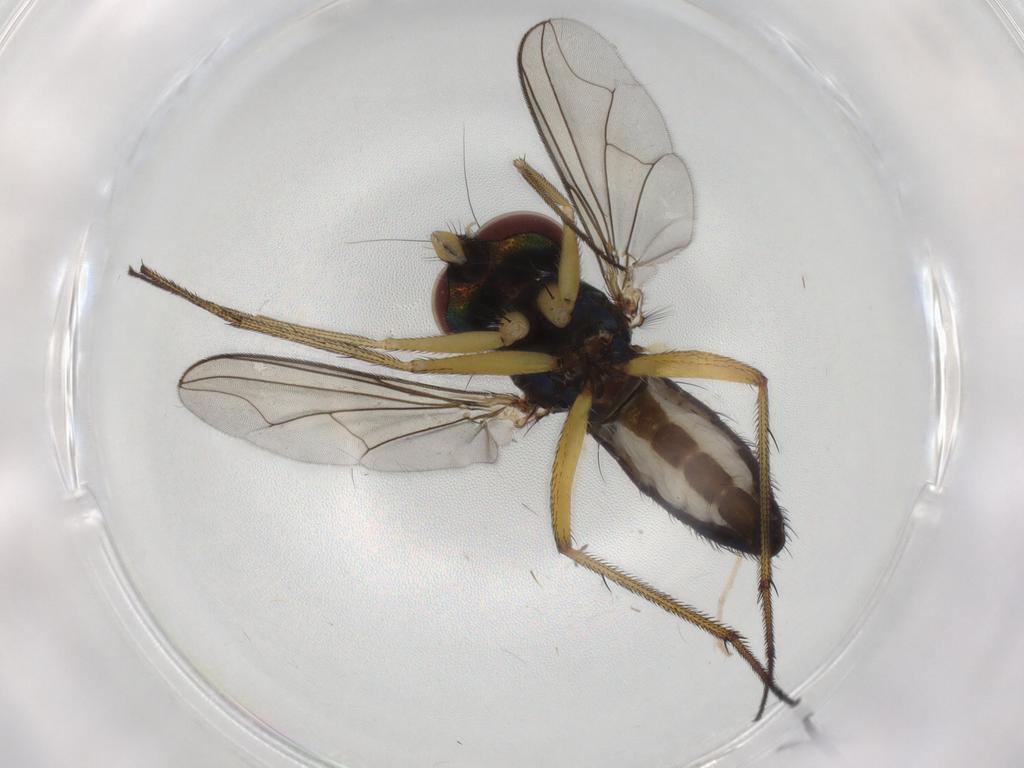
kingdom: Animalia
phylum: Arthropoda
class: Insecta
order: Diptera
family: Dolichopodidae
